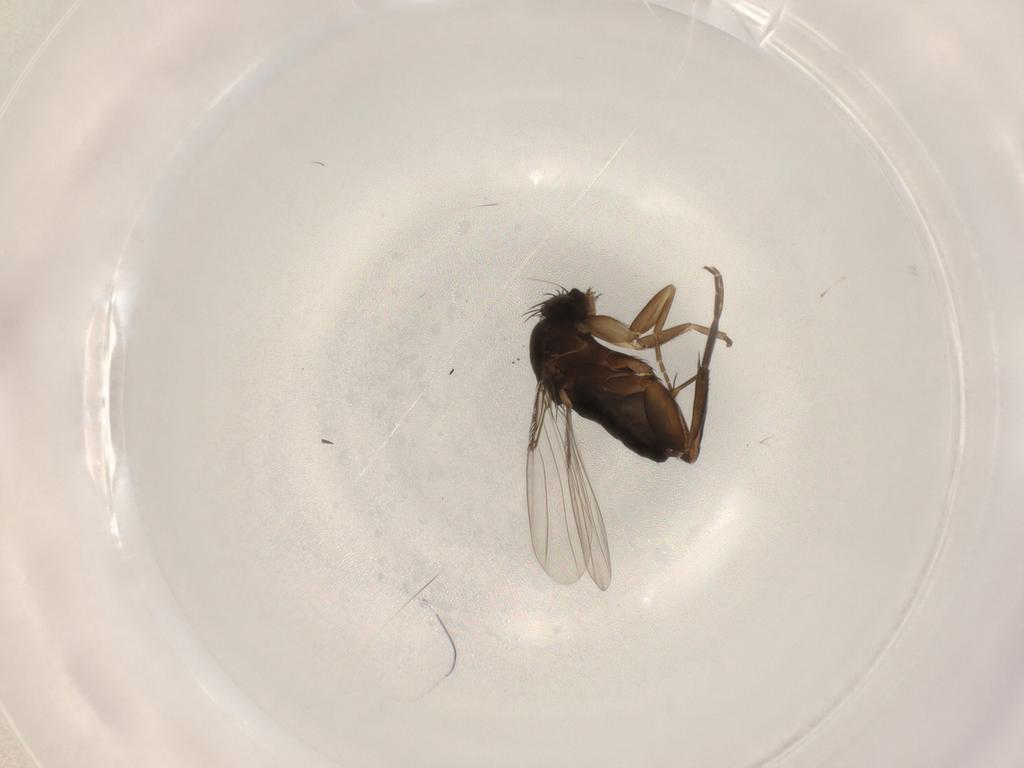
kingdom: Animalia
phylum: Arthropoda
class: Insecta
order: Diptera
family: Phoridae
